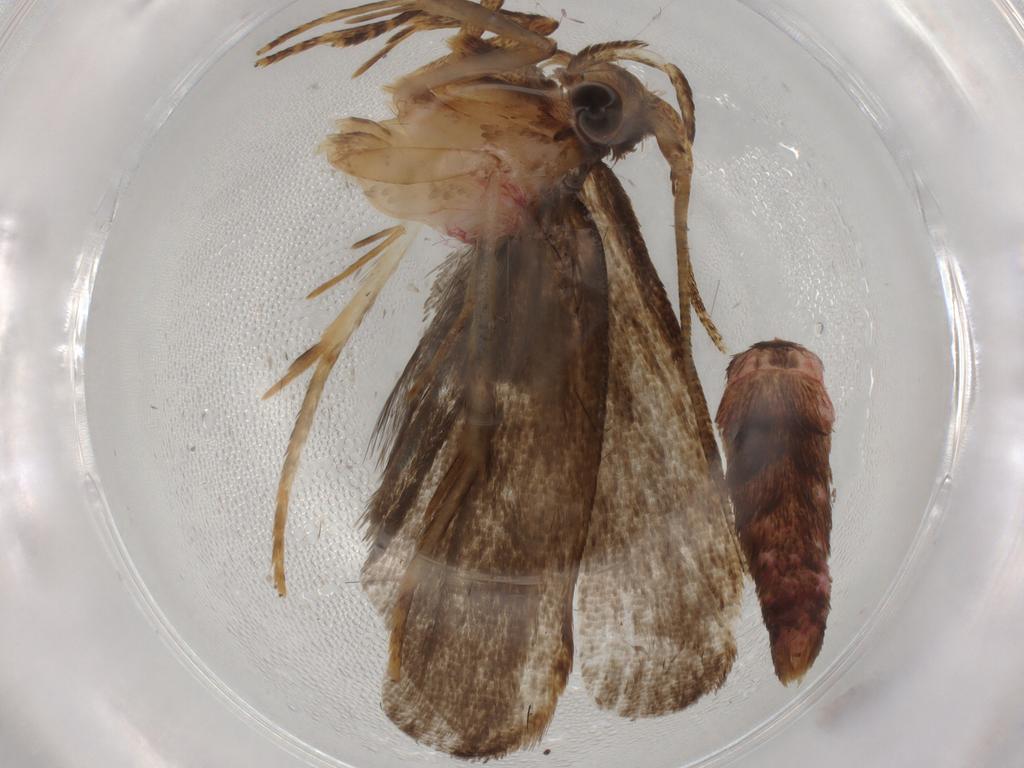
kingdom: Animalia
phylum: Arthropoda
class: Insecta
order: Lepidoptera
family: Autostichidae
